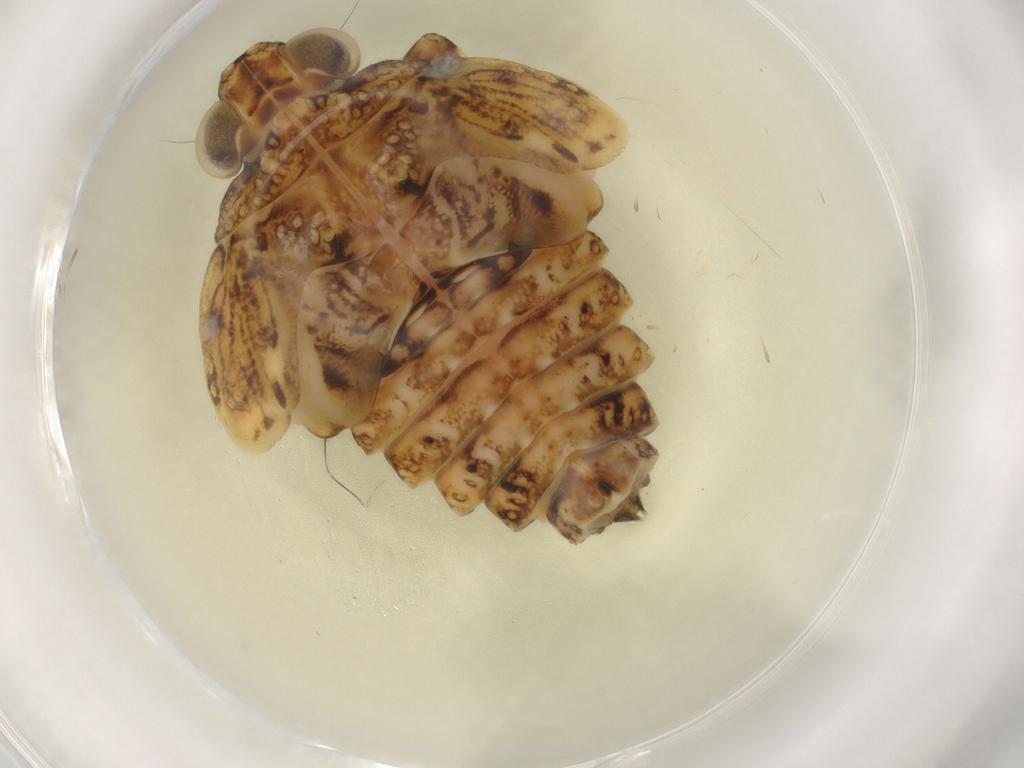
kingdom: Animalia
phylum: Arthropoda
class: Insecta
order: Hemiptera
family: Fulgoroidea_incertae_sedis
